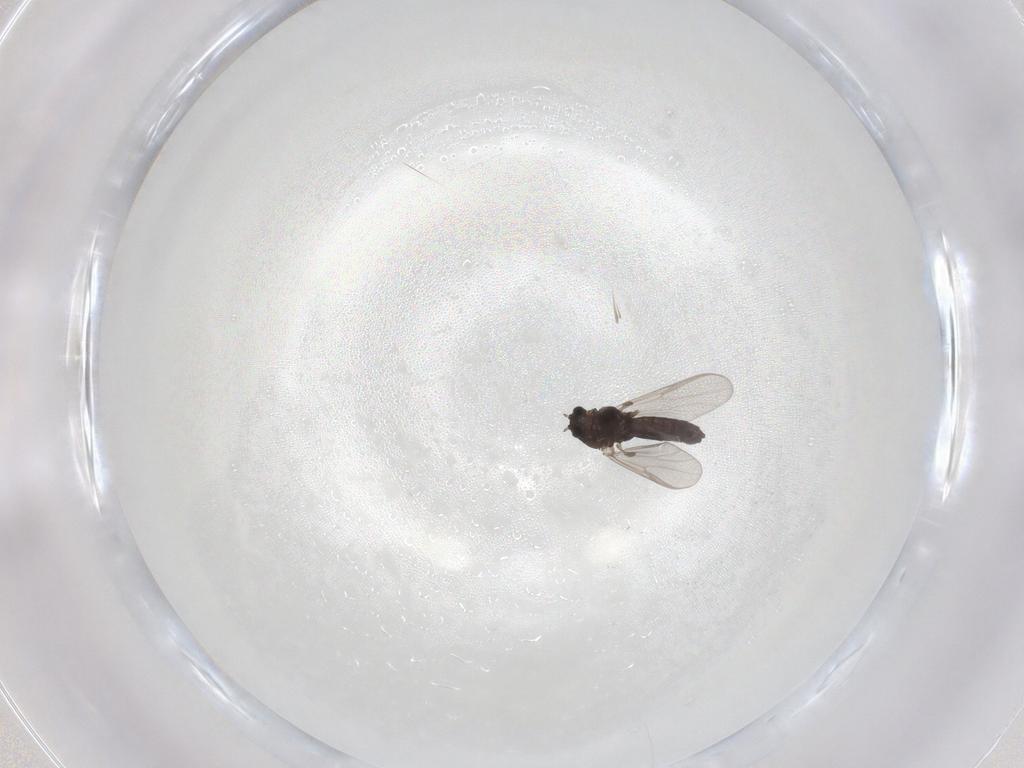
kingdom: Animalia
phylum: Arthropoda
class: Insecta
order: Diptera
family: Chironomidae
